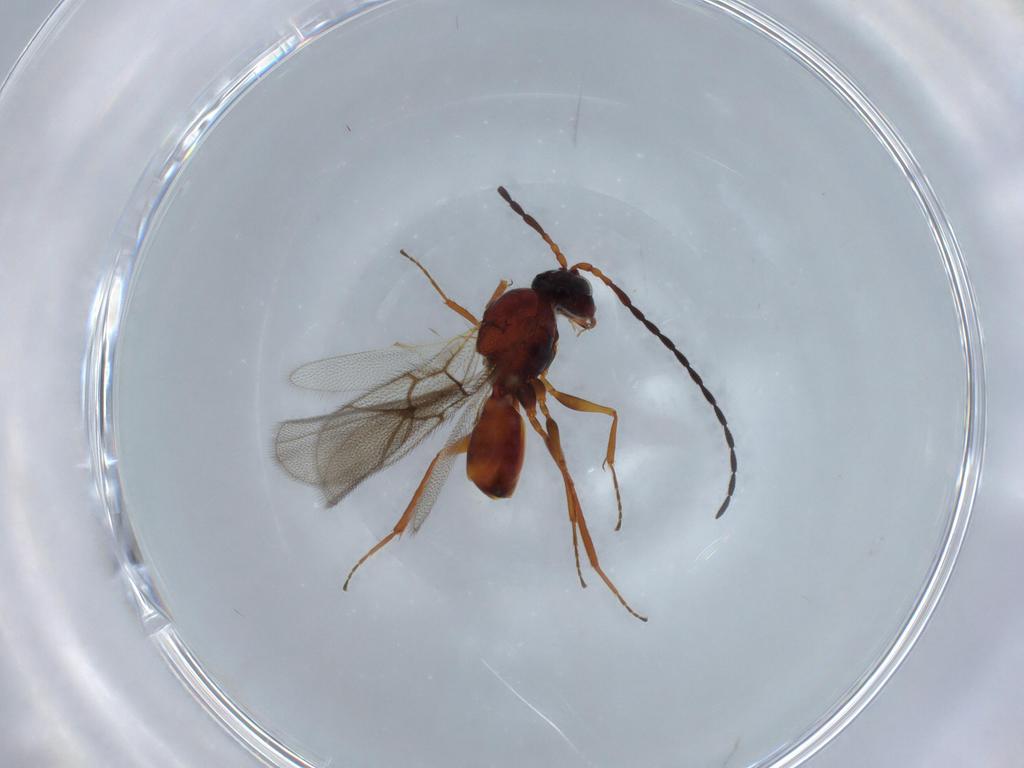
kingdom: Animalia
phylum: Arthropoda
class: Insecta
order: Hymenoptera
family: Figitidae
